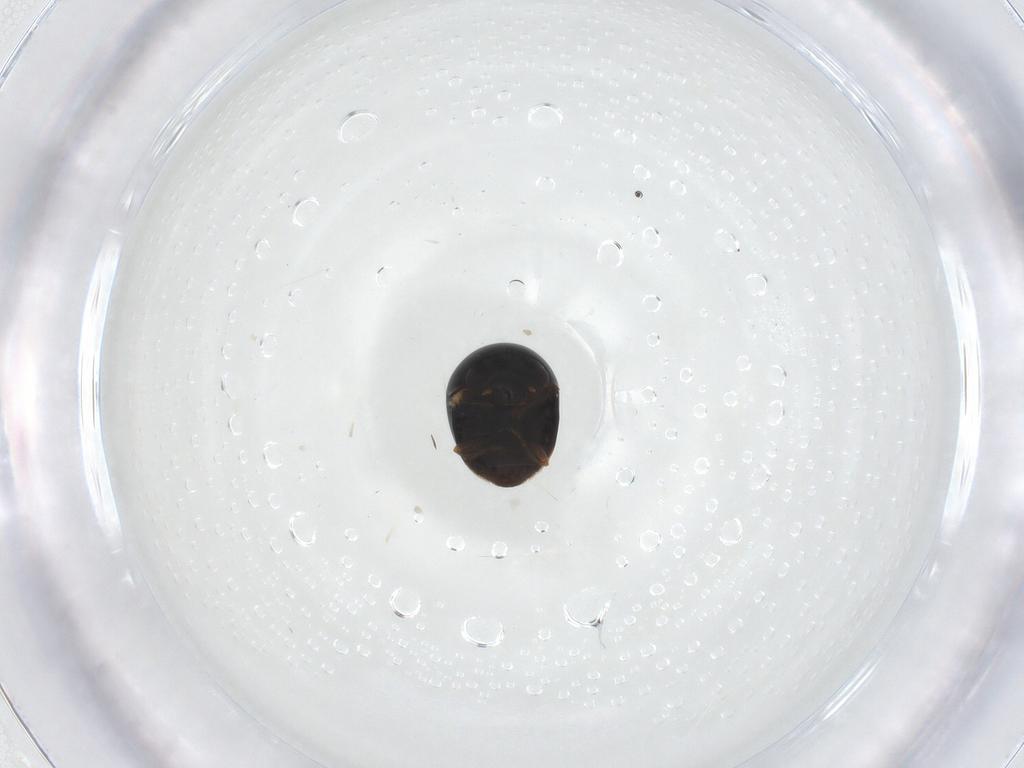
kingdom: Animalia
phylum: Arthropoda
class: Insecta
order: Coleoptera
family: Cybocephalidae
